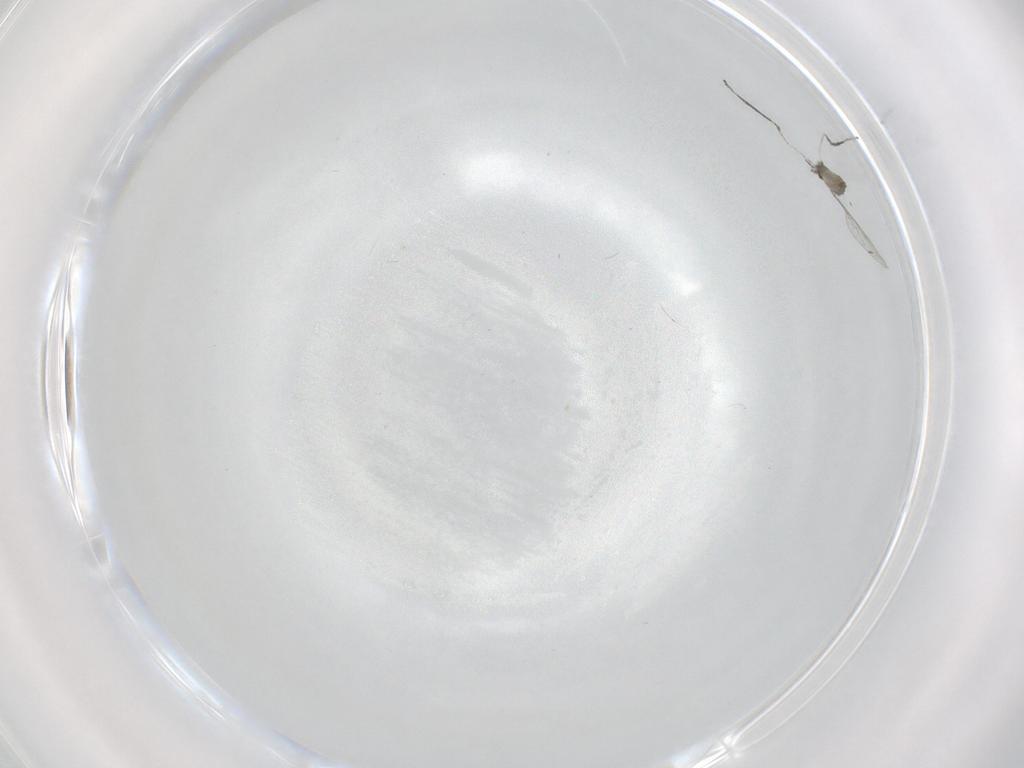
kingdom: Animalia
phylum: Arthropoda
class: Insecta
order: Diptera
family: Cecidomyiidae
